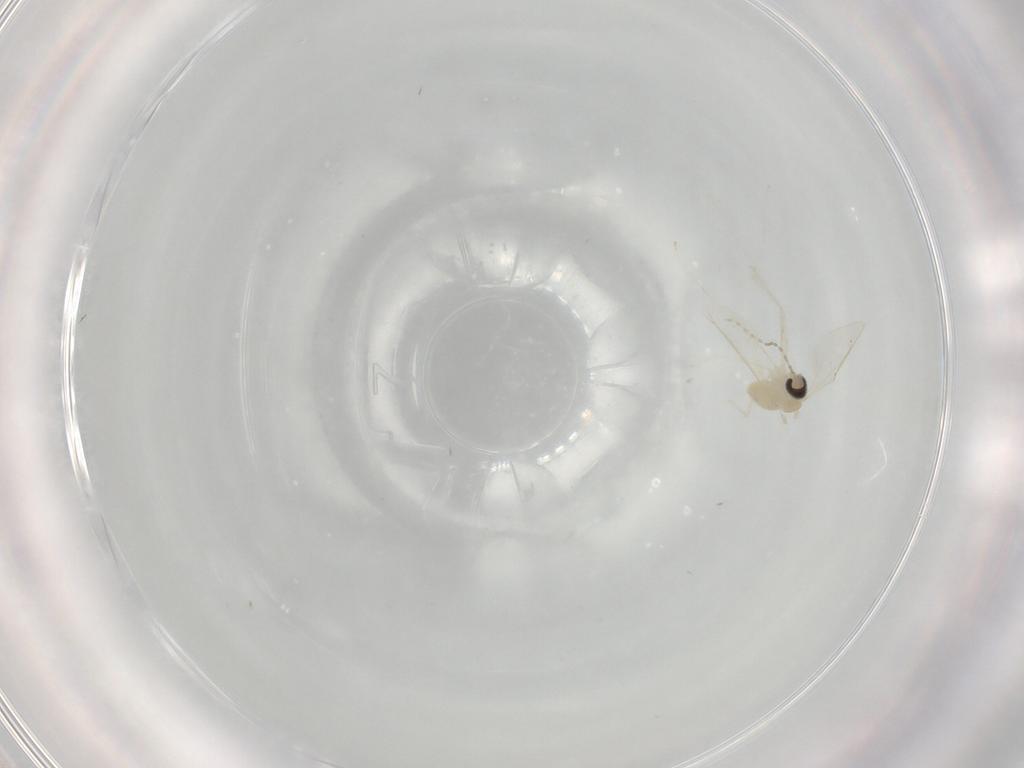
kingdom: Animalia
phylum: Arthropoda
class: Insecta
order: Diptera
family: Cecidomyiidae
